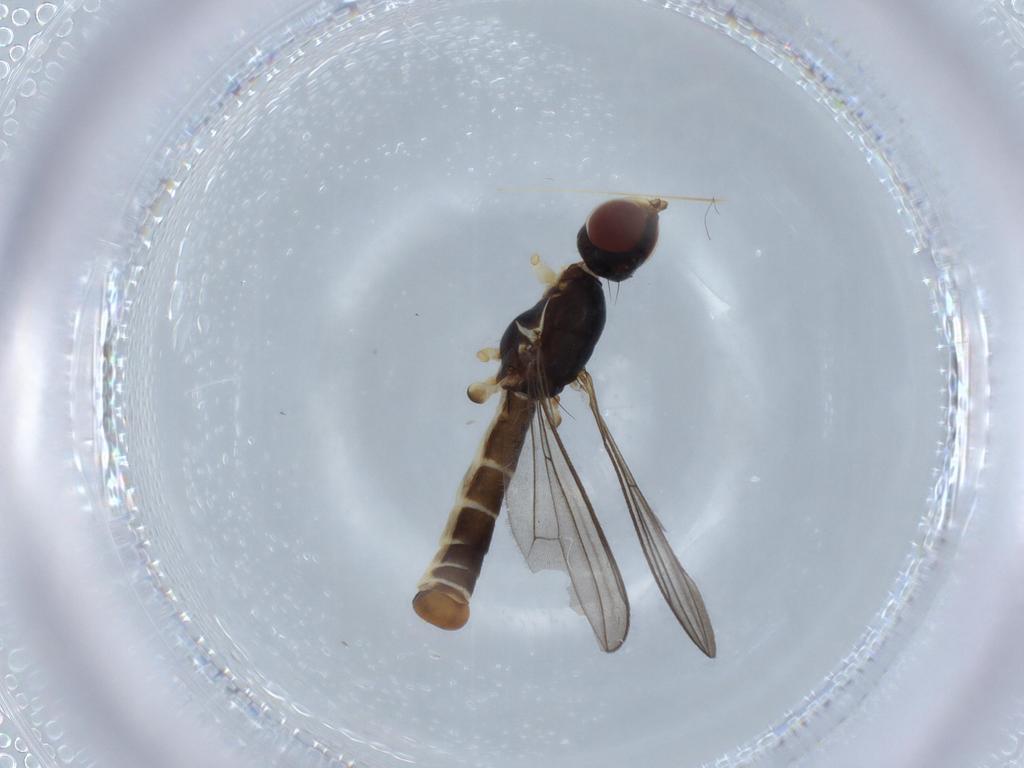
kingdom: Animalia
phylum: Arthropoda
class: Insecta
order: Diptera
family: Micropezidae
